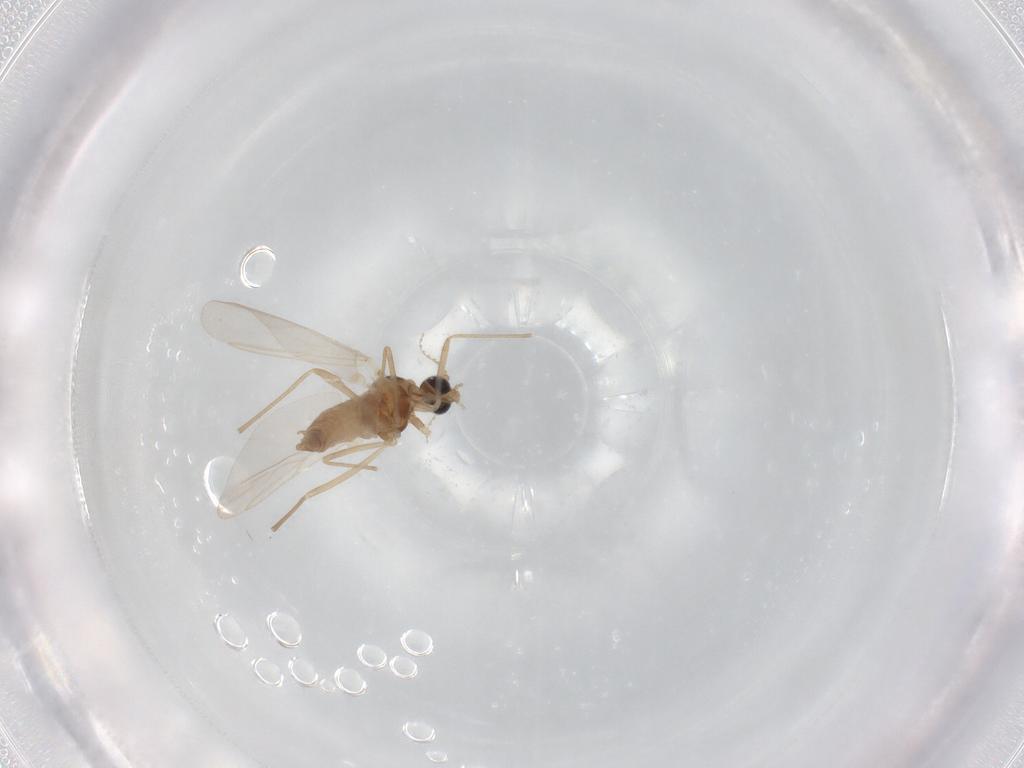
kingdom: Animalia
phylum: Arthropoda
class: Insecta
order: Diptera
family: Cecidomyiidae
